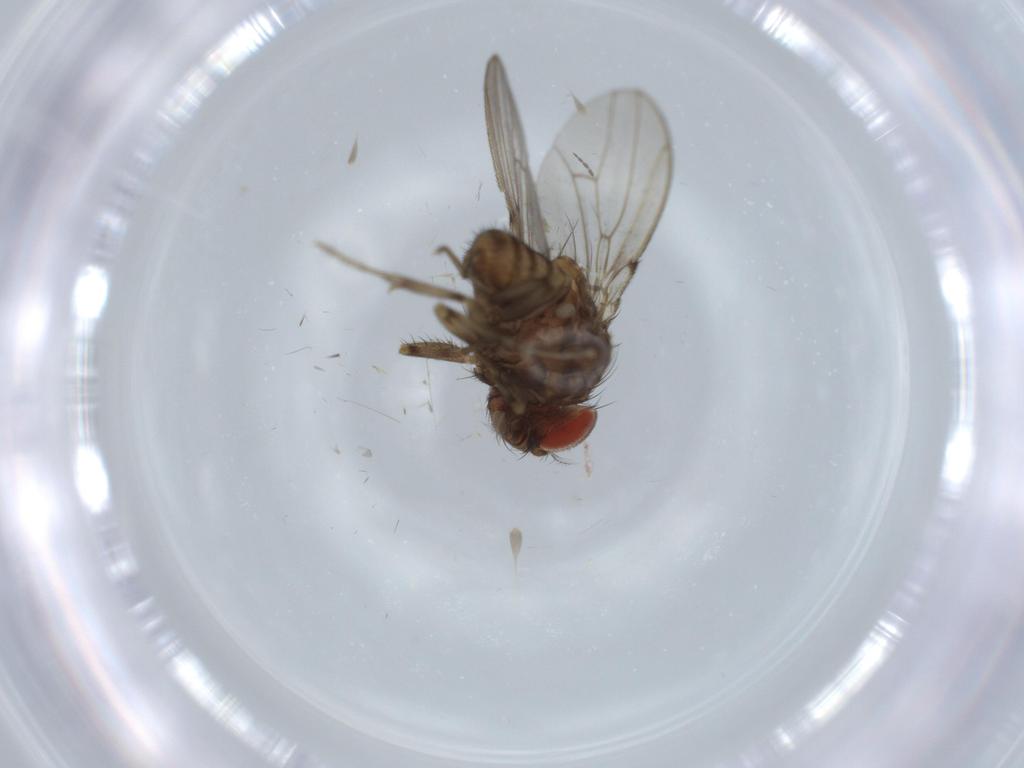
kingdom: Animalia
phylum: Arthropoda
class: Insecta
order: Diptera
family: Drosophilidae
